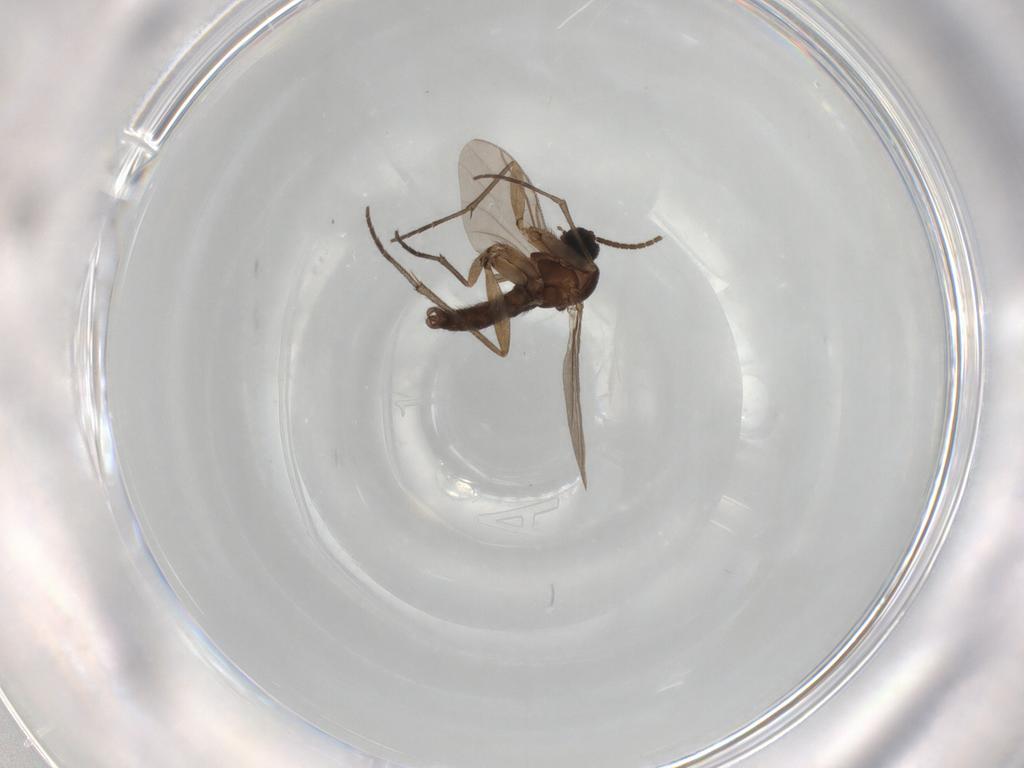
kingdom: Animalia
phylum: Arthropoda
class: Insecta
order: Diptera
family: Sciaridae
